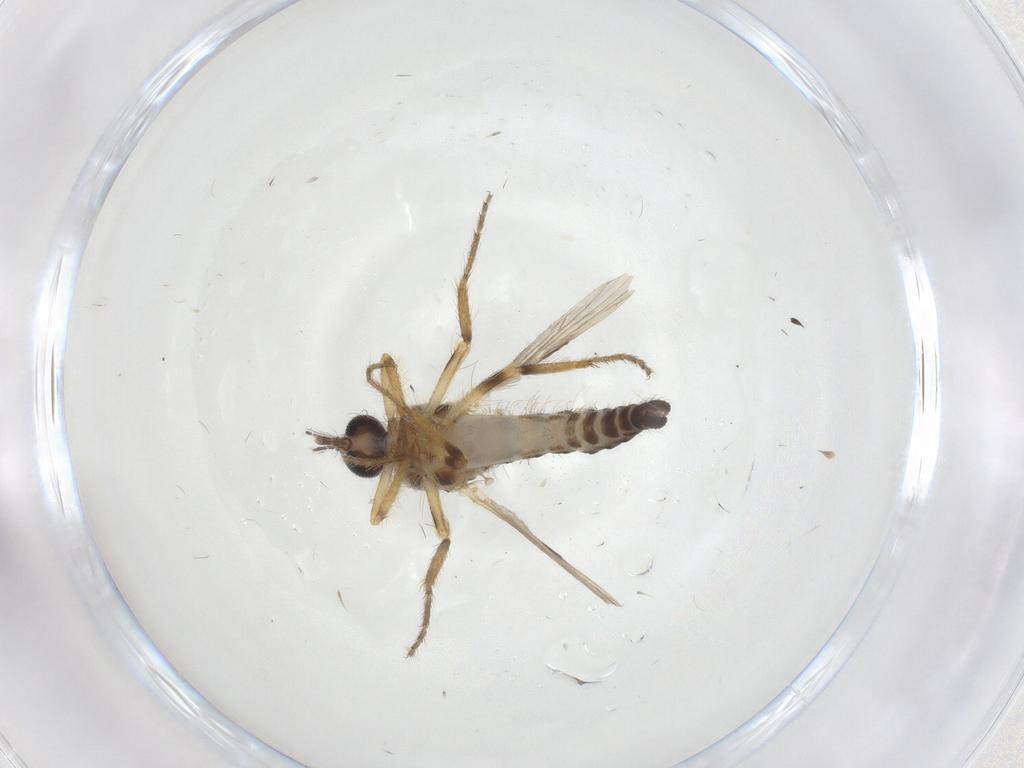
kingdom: Animalia
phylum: Arthropoda
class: Insecta
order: Diptera
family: Ceratopogonidae
